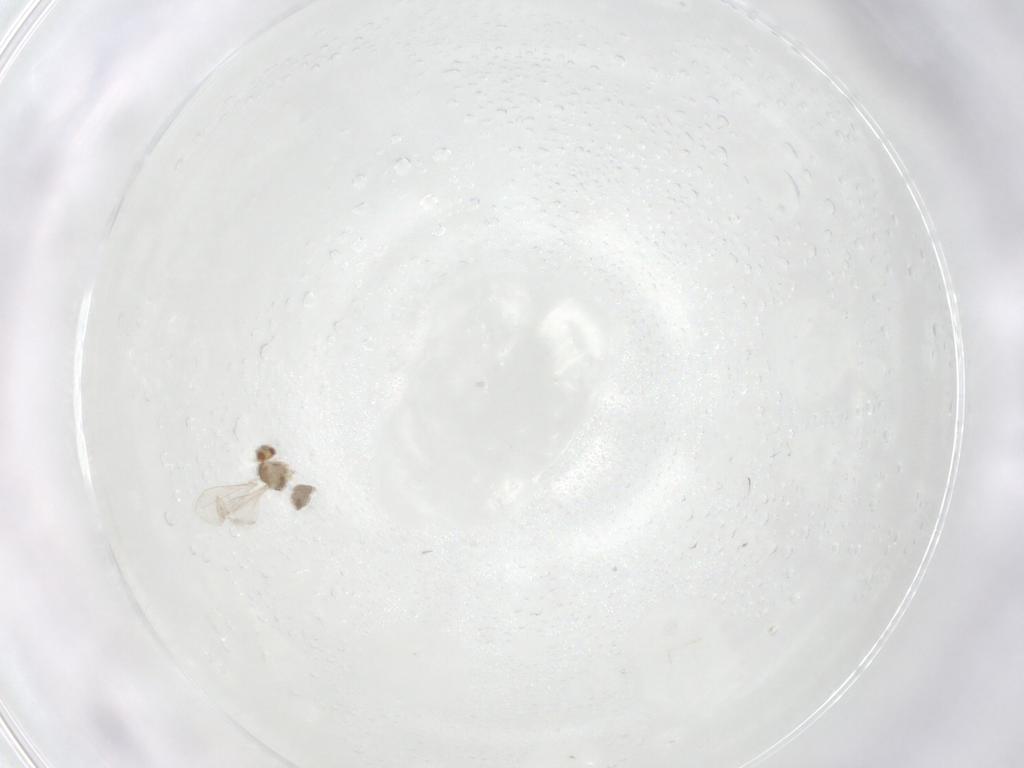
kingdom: Animalia
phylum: Arthropoda
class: Insecta
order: Diptera
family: Cecidomyiidae
